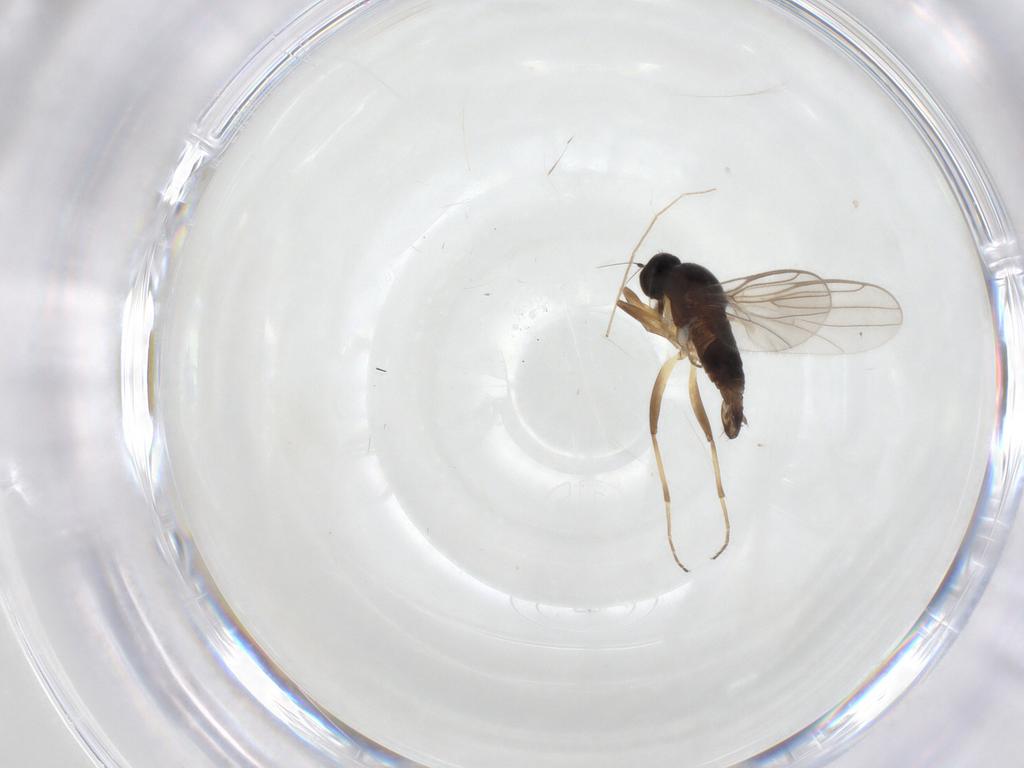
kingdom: Animalia
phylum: Arthropoda
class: Insecta
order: Diptera
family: Hybotidae
